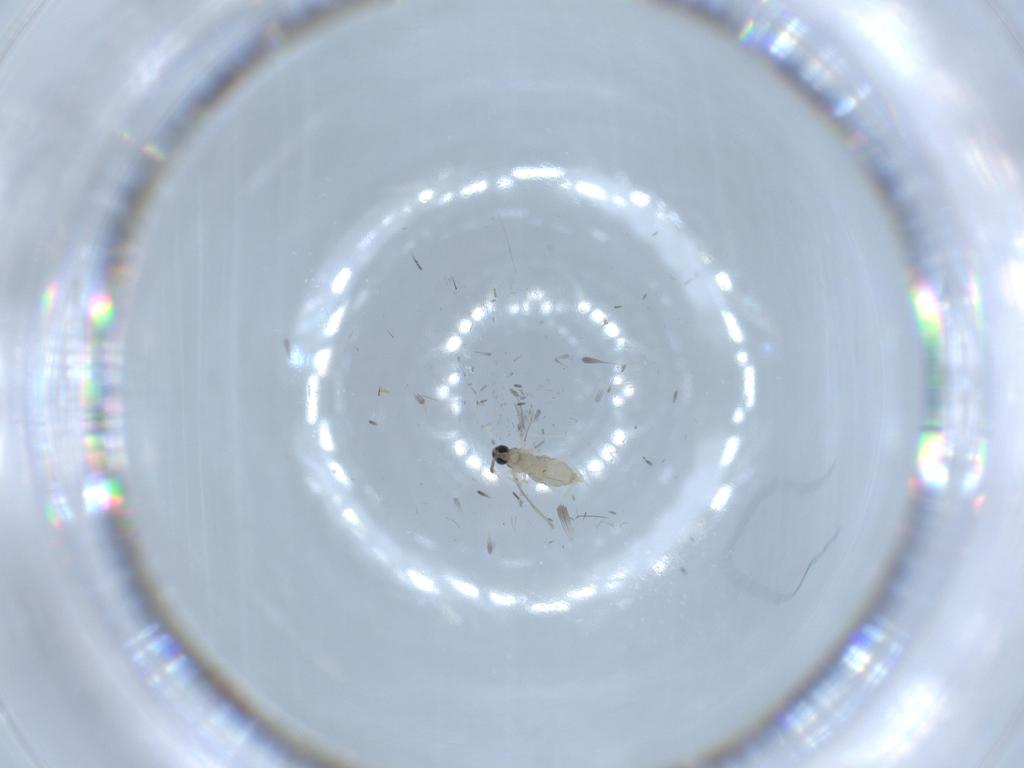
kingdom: Animalia
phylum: Arthropoda
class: Insecta
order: Diptera
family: Cecidomyiidae
